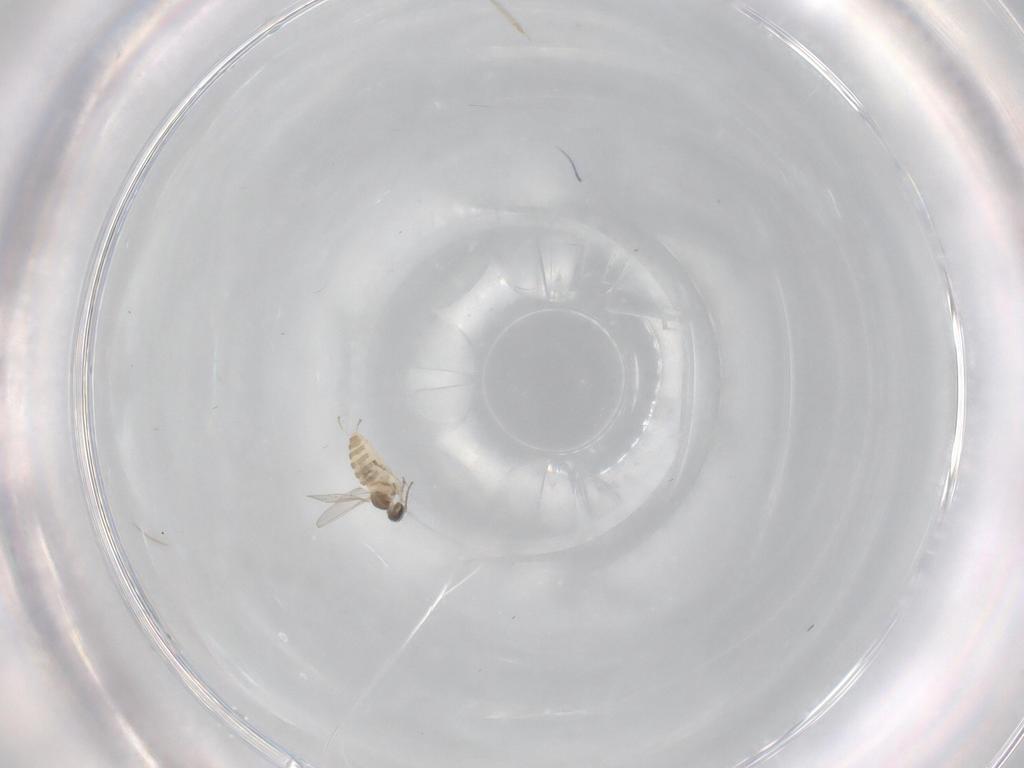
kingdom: Animalia
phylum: Arthropoda
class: Insecta
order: Diptera
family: Cecidomyiidae
